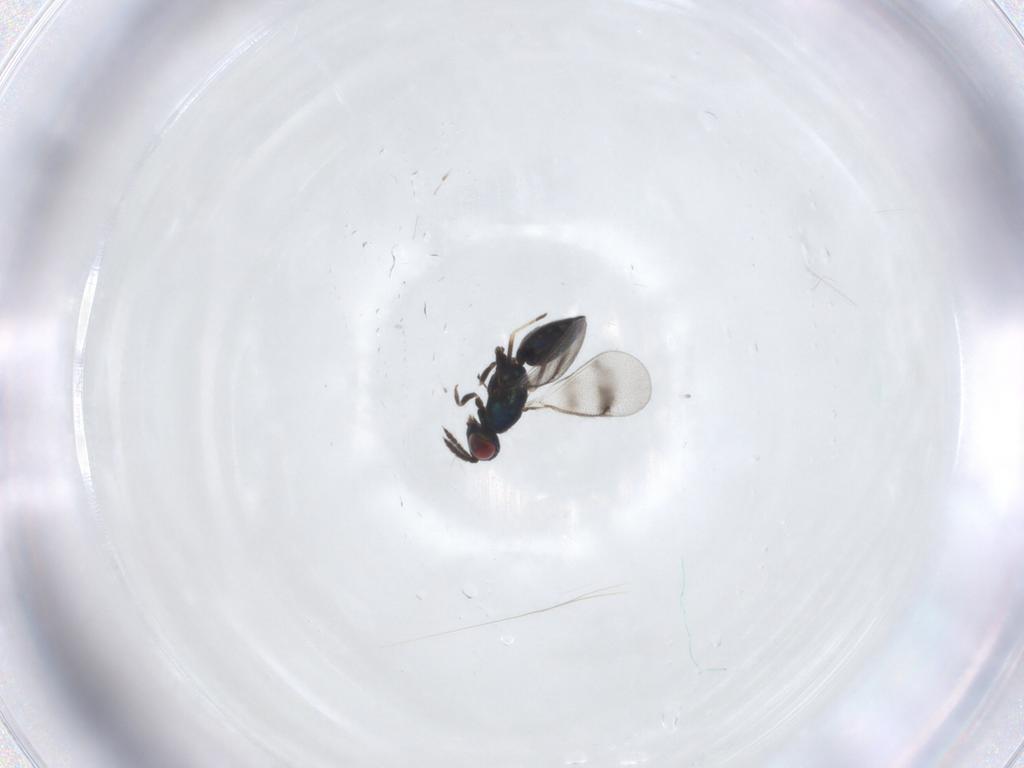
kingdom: Animalia
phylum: Arthropoda
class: Insecta
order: Hymenoptera
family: Eulophidae
